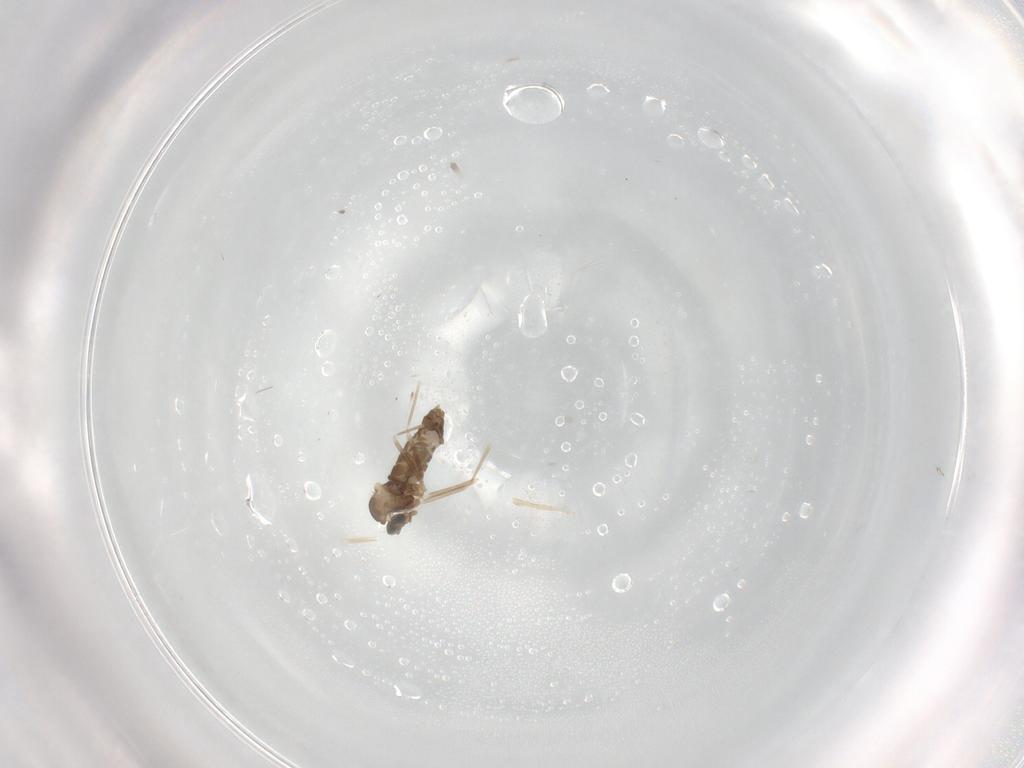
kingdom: Animalia
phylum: Arthropoda
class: Insecta
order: Diptera
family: Cecidomyiidae
